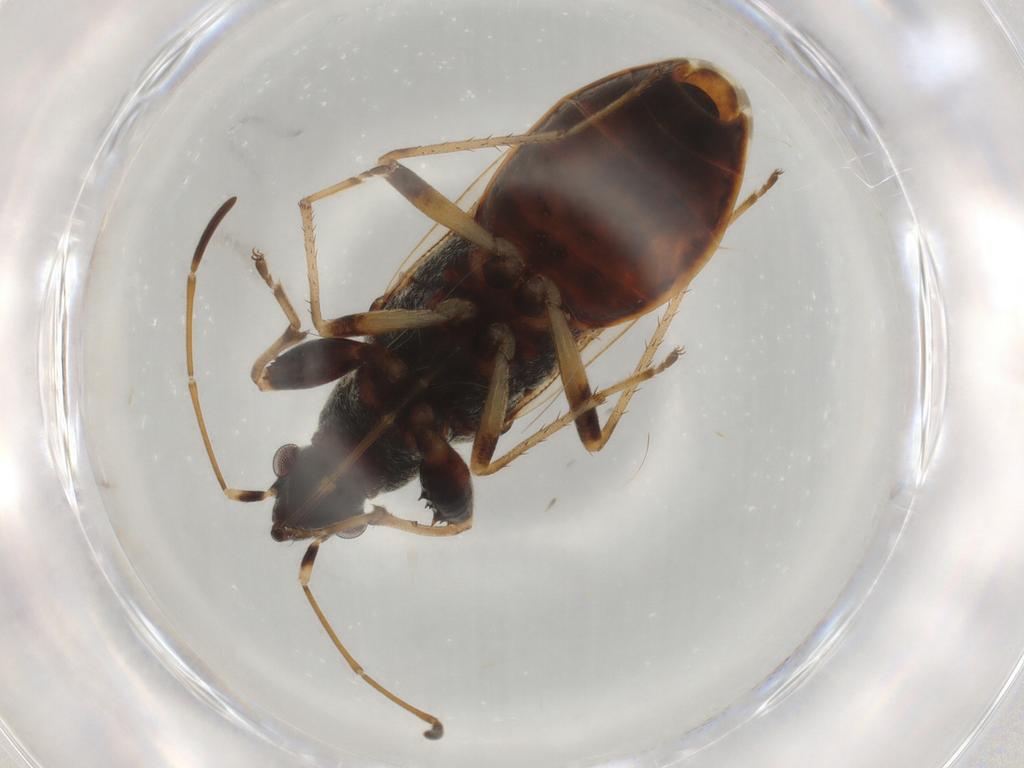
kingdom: Animalia
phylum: Arthropoda
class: Insecta
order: Hemiptera
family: Rhyparochromidae
